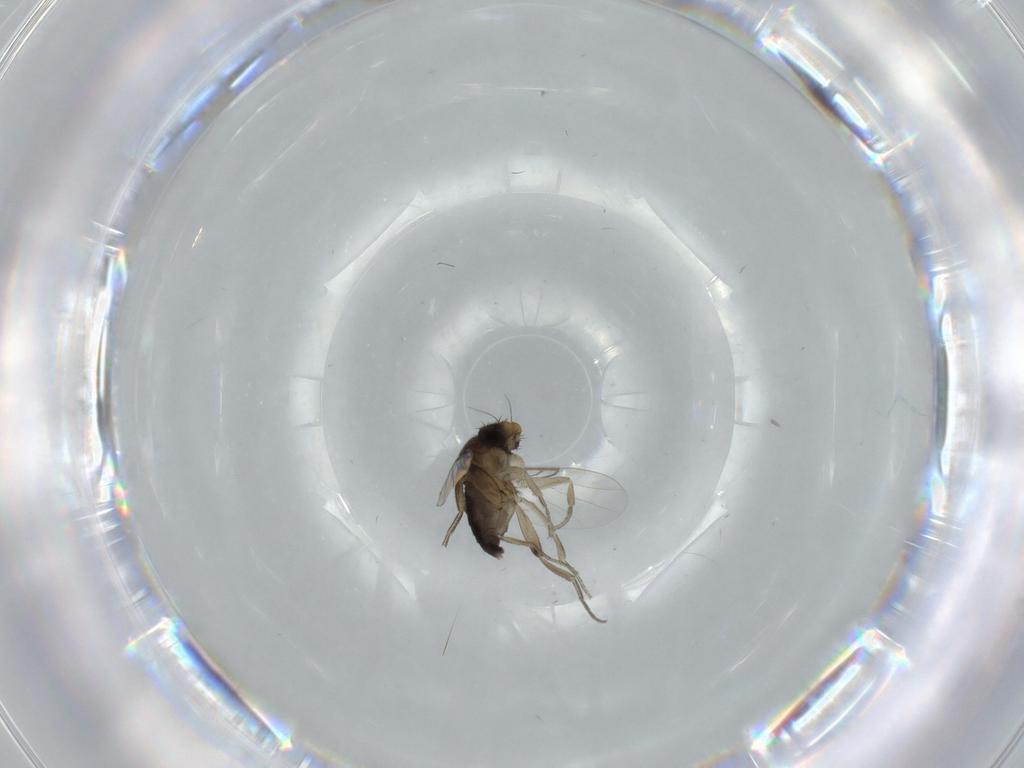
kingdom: Animalia
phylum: Arthropoda
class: Insecta
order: Diptera
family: Phoridae
